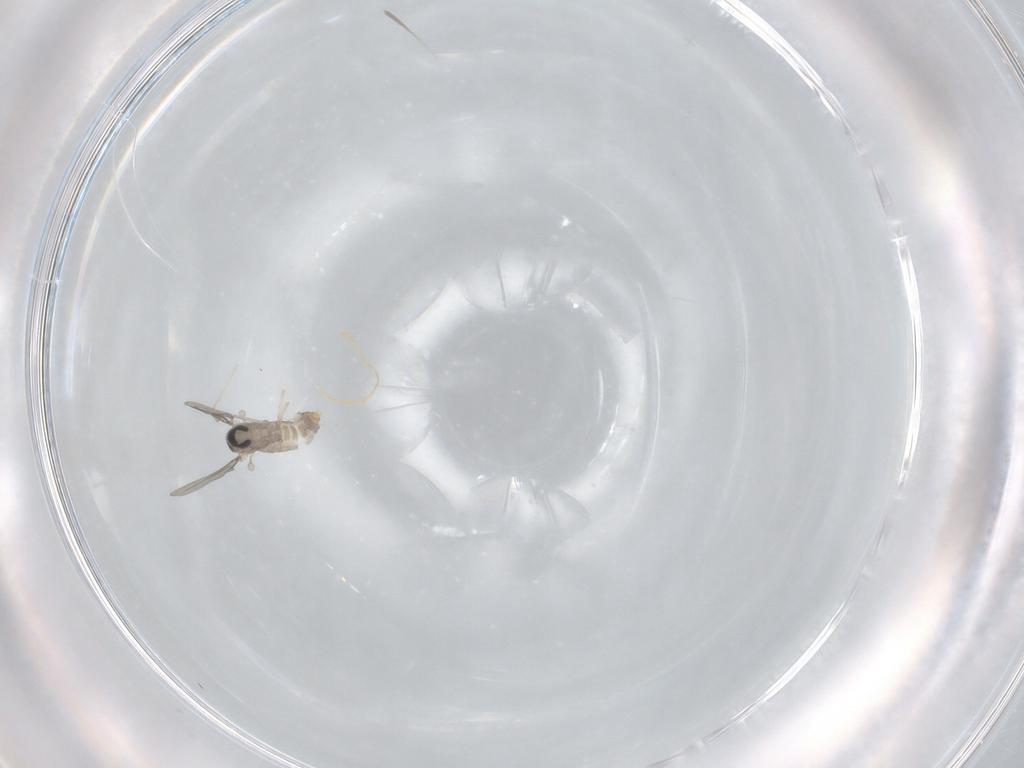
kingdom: Animalia
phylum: Arthropoda
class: Insecta
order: Diptera
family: Cecidomyiidae
